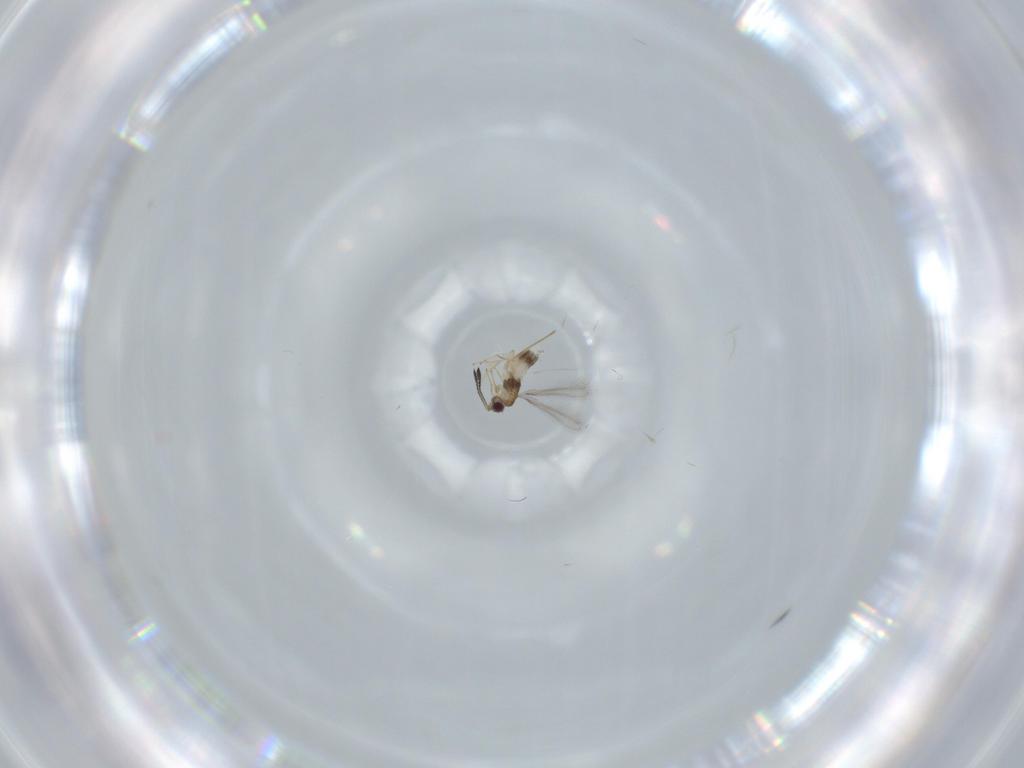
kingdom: Animalia
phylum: Arthropoda
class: Insecta
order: Hymenoptera
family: Mymaridae
